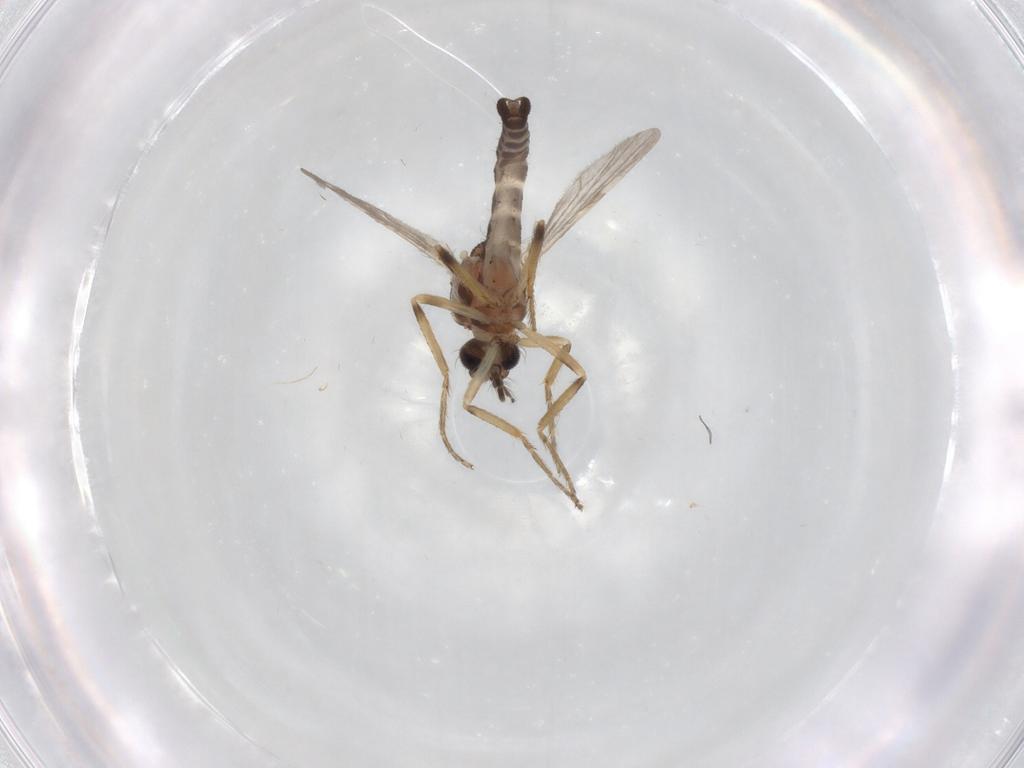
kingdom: Animalia
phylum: Arthropoda
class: Insecta
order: Diptera
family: Ceratopogonidae
